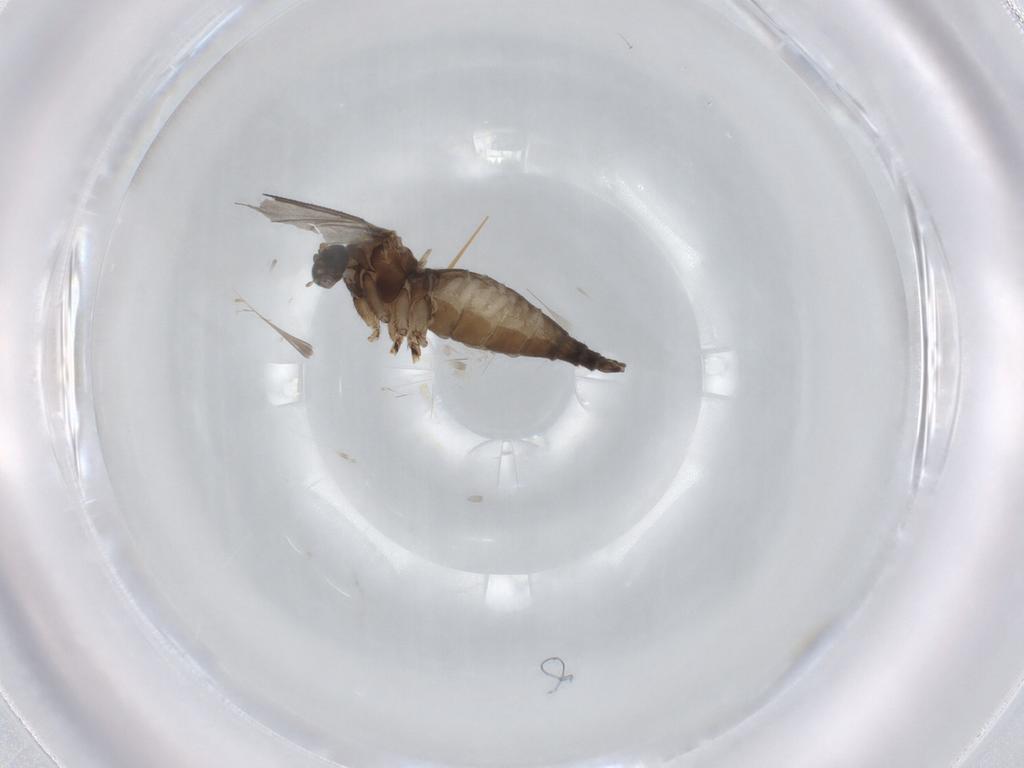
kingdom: Animalia
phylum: Arthropoda
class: Insecta
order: Diptera
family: Sciaridae
